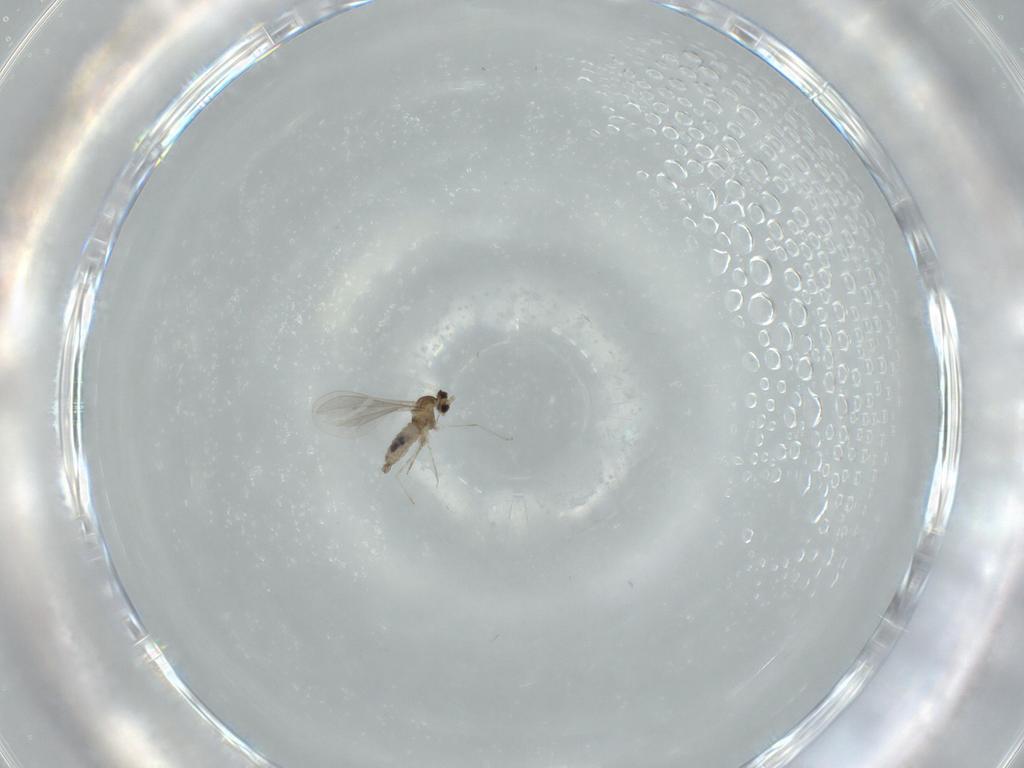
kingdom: Animalia
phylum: Arthropoda
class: Insecta
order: Diptera
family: Cecidomyiidae
